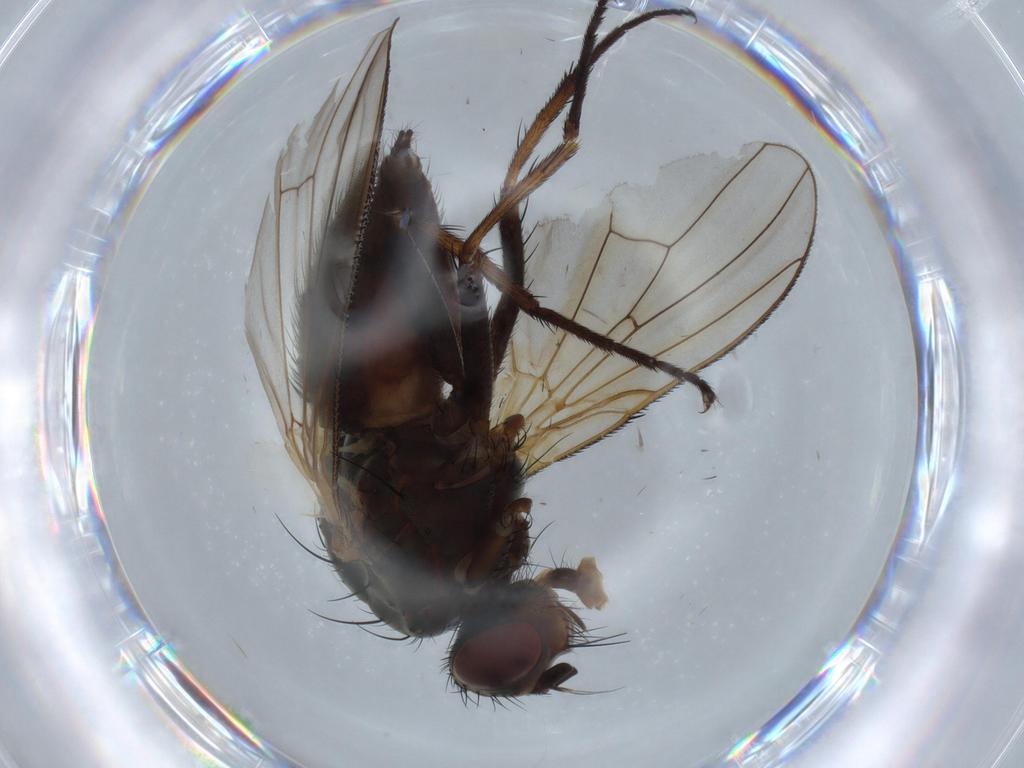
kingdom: Animalia
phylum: Arthropoda
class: Insecta
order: Diptera
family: Anthomyiidae
